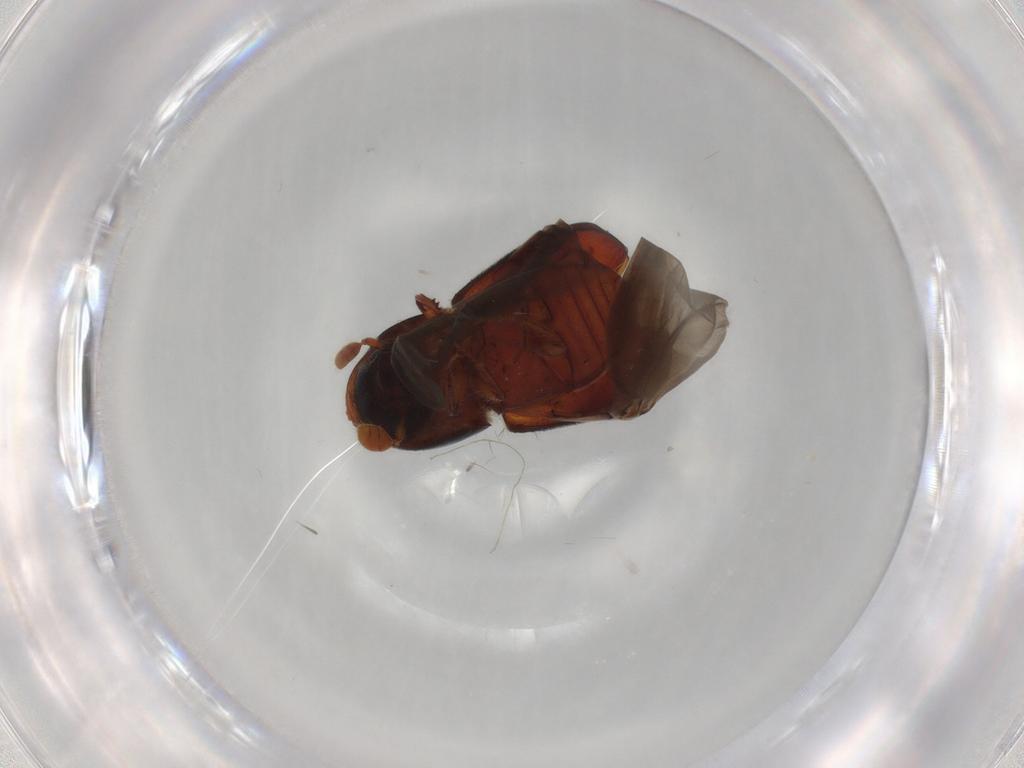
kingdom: Animalia
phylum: Arthropoda
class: Insecta
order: Coleoptera
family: Curculionidae
